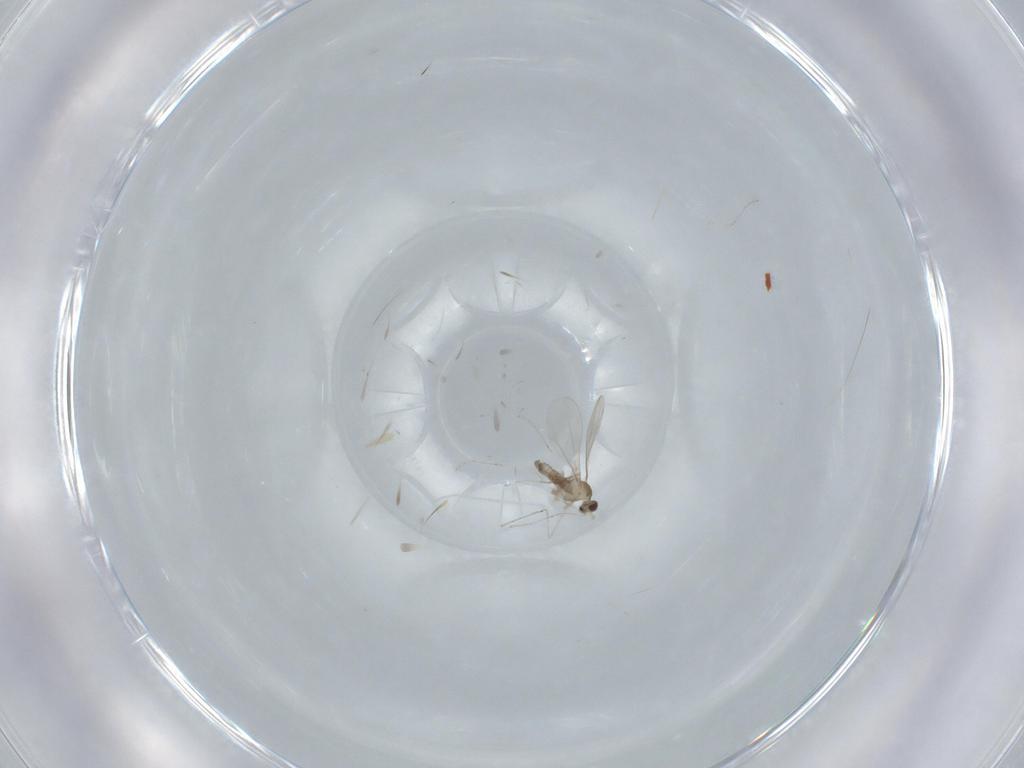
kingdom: Animalia
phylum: Arthropoda
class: Insecta
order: Diptera
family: Cecidomyiidae
